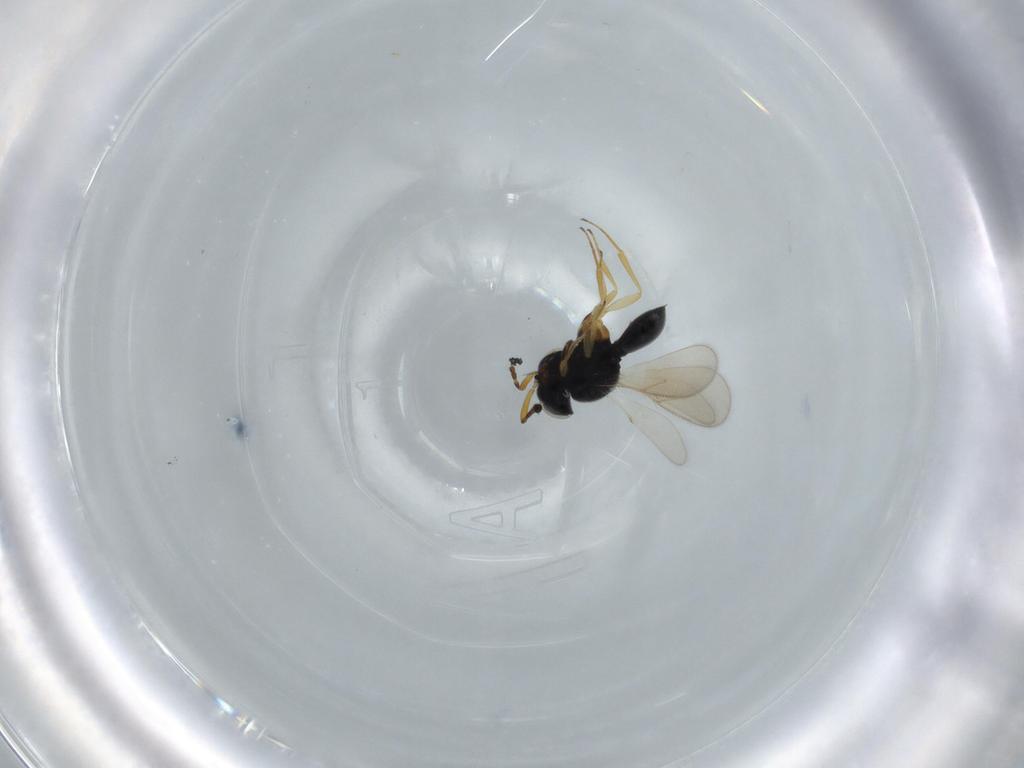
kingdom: Animalia
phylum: Arthropoda
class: Insecta
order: Hymenoptera
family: Scelionidae
